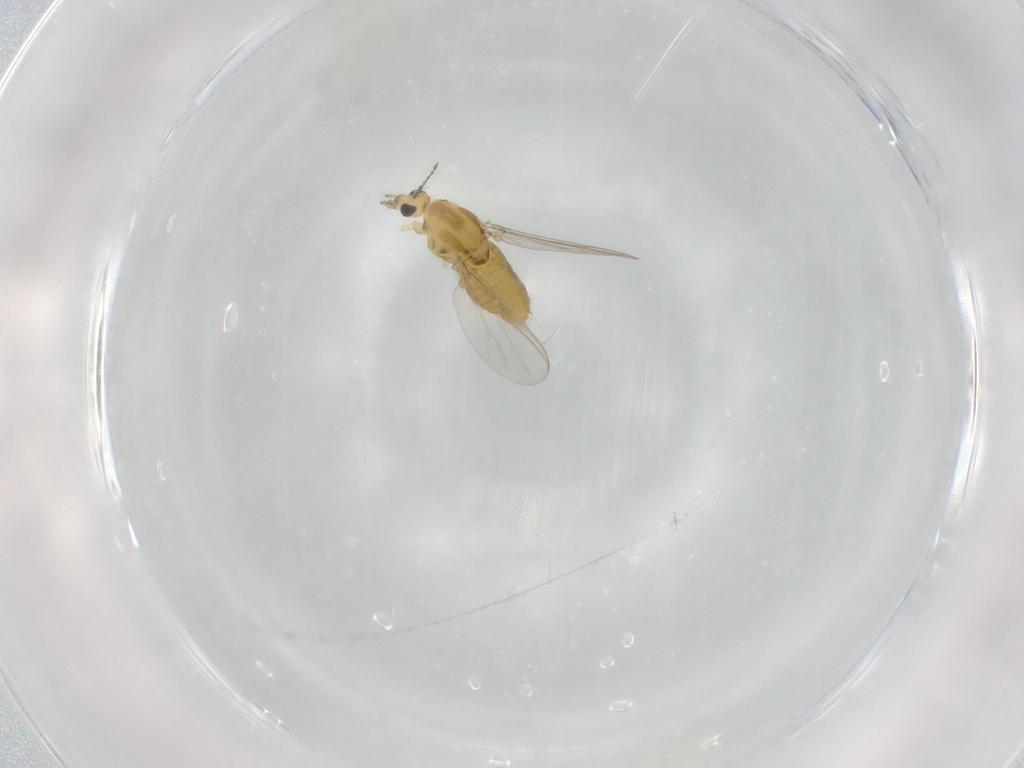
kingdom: Animalia
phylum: Arthropoda
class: Insecta
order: Diptera
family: Chironomidae
